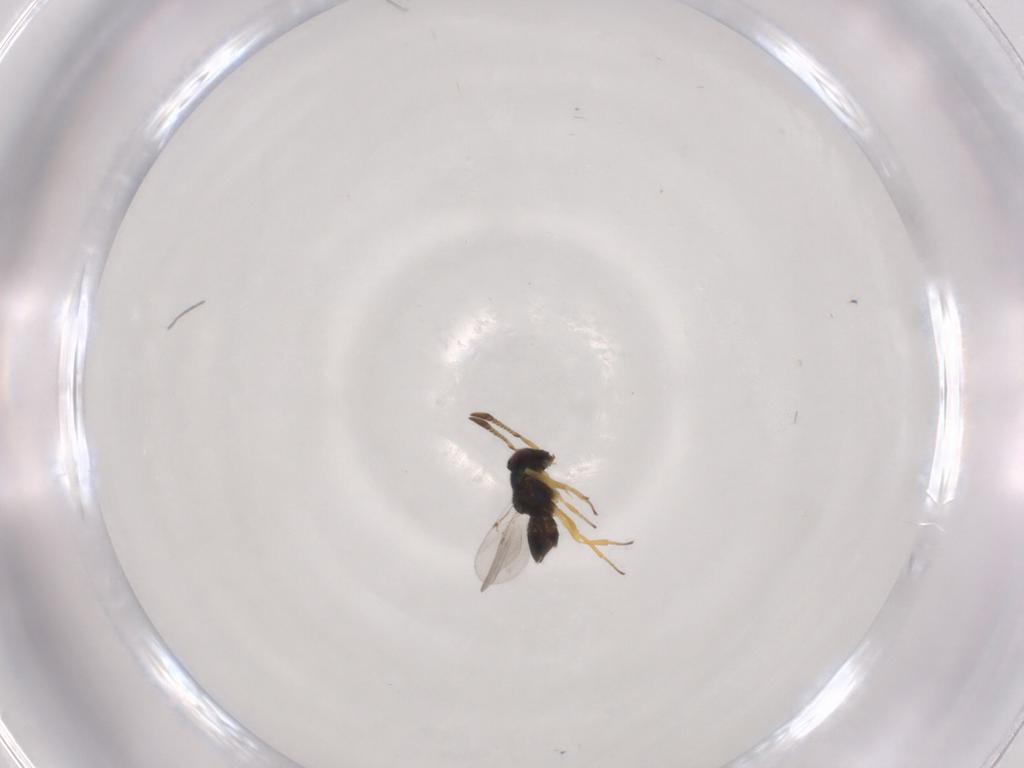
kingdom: Animalia
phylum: Arthropoda
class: Insecta
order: Hymenoptera
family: Encyrtidae
